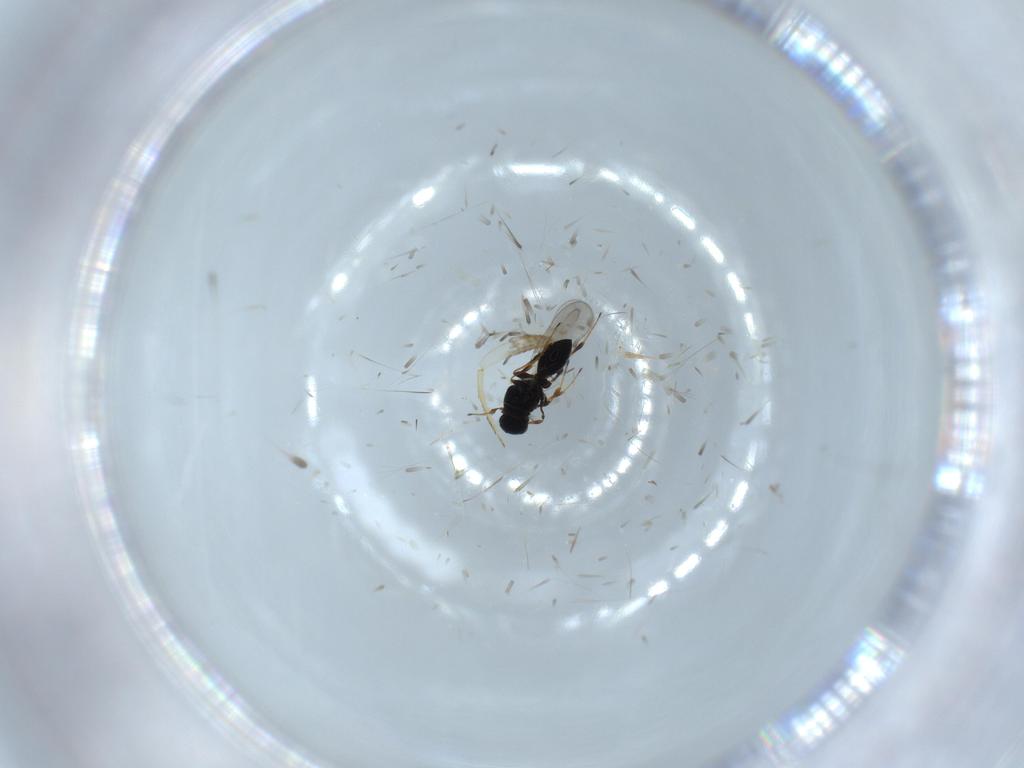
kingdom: Animalia
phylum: Arthropoda
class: Insecta
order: Hymenoptera
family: Platygastridae
